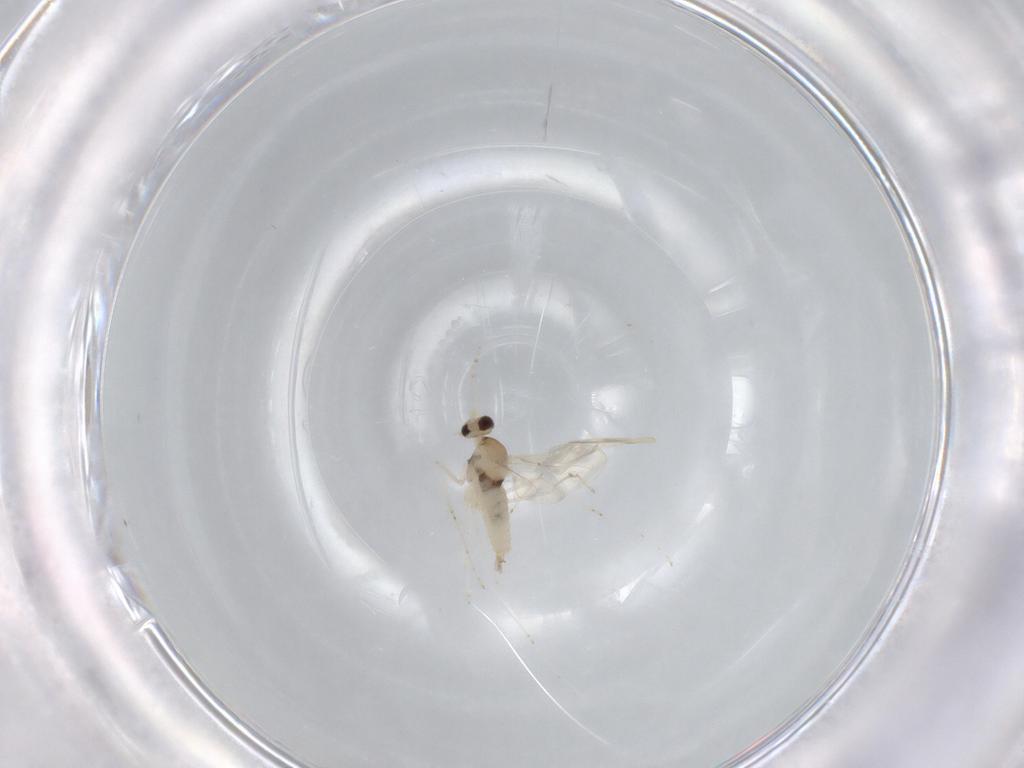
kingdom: Animalia
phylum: Arthropoda
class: Insecta
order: Diptera
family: Cecidomyiidae
